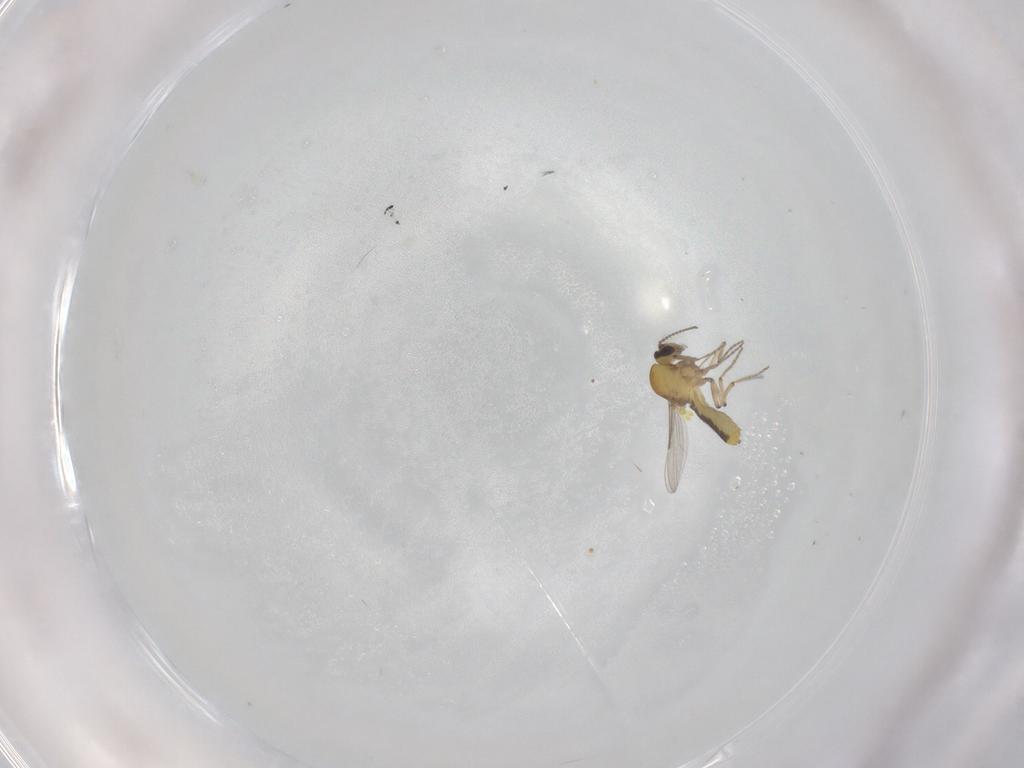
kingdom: Animalia
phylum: Arthropoda
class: Insecta
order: Diptera
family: Ceratopogonidae
